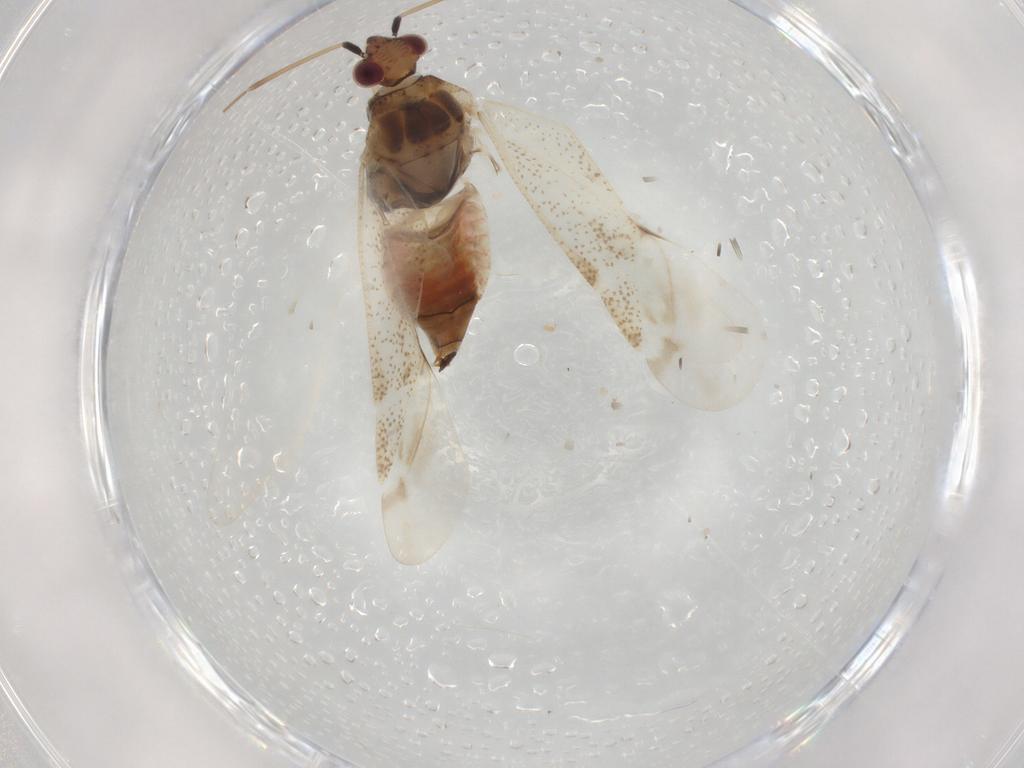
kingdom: Animalia
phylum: Arthropoda
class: Insecta
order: Hemiptera
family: Miridae
